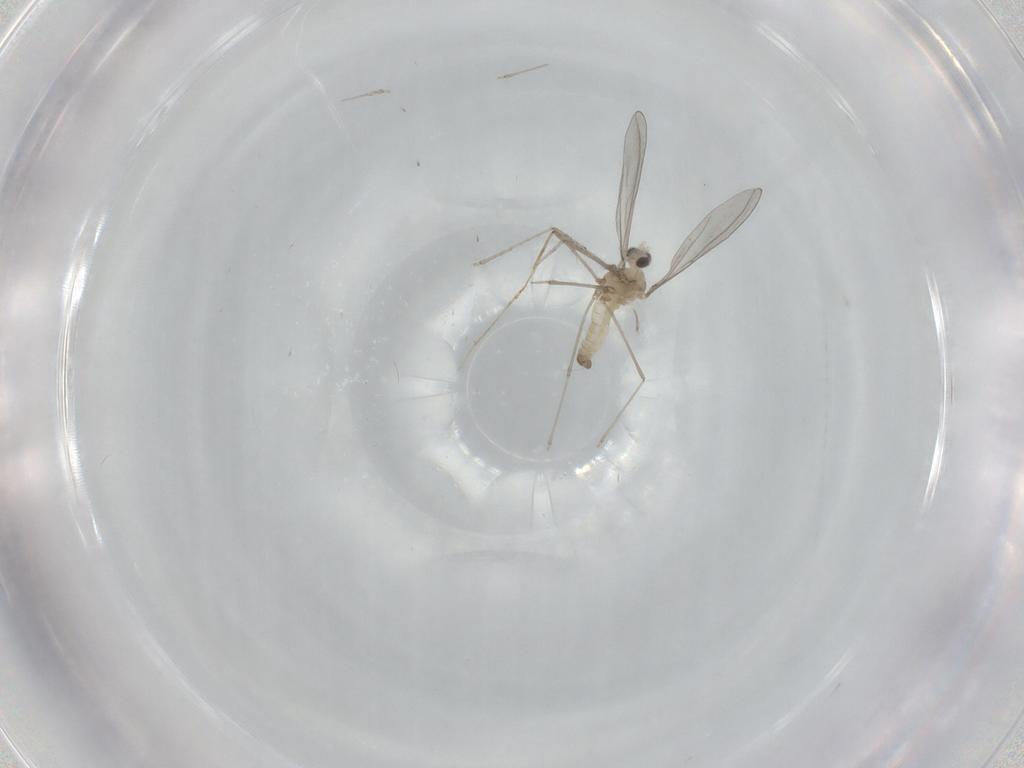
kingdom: Animalia
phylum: Arthropoda
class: Insecta
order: Diptera
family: Cecidomyiidae
